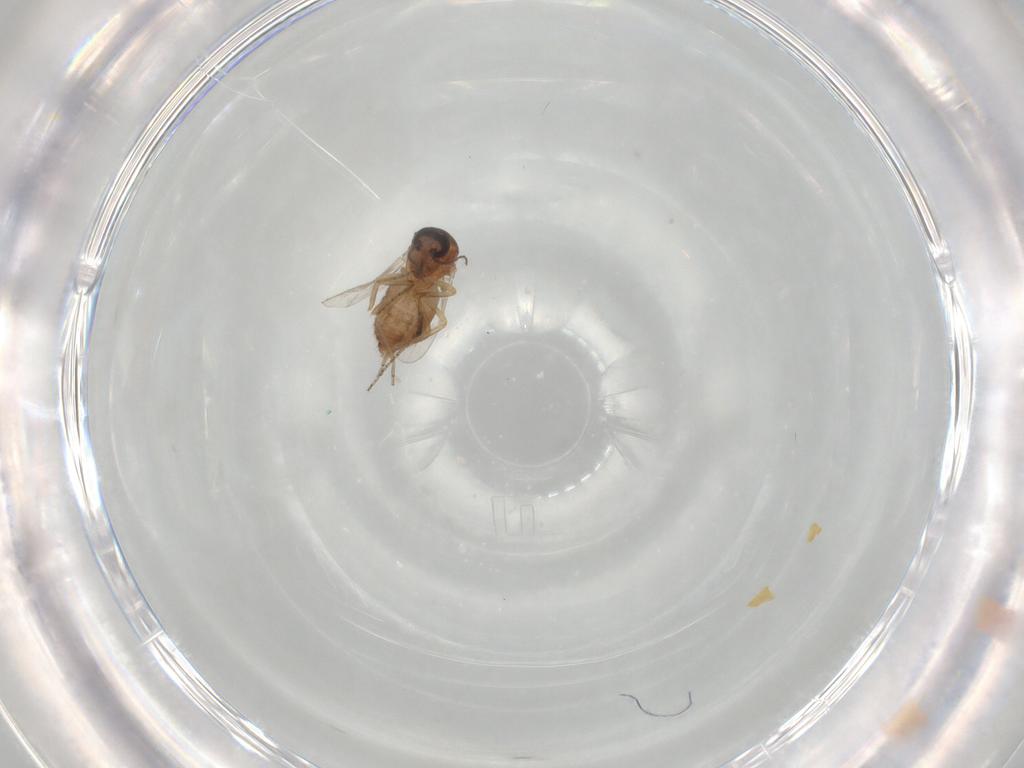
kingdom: Animalia
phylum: Arthropoda
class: Insecta
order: Diptera
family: Ceratopogonidae
